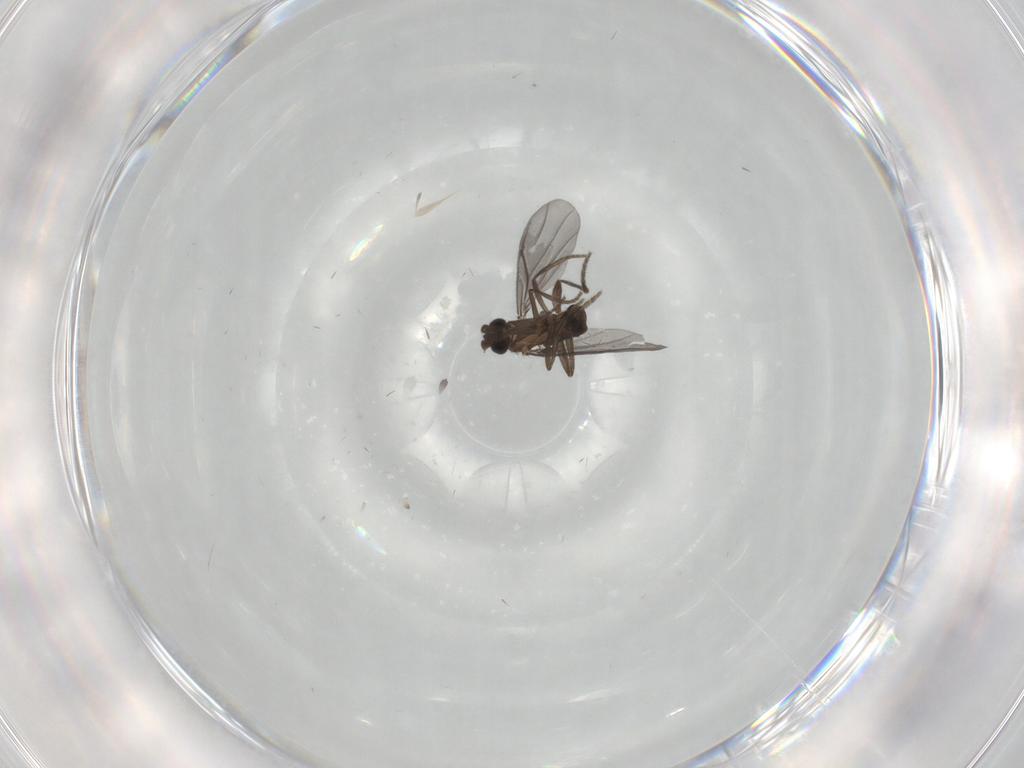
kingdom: Animalia
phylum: Arthropoda
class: Insecta
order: Diptera
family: Phoridae
